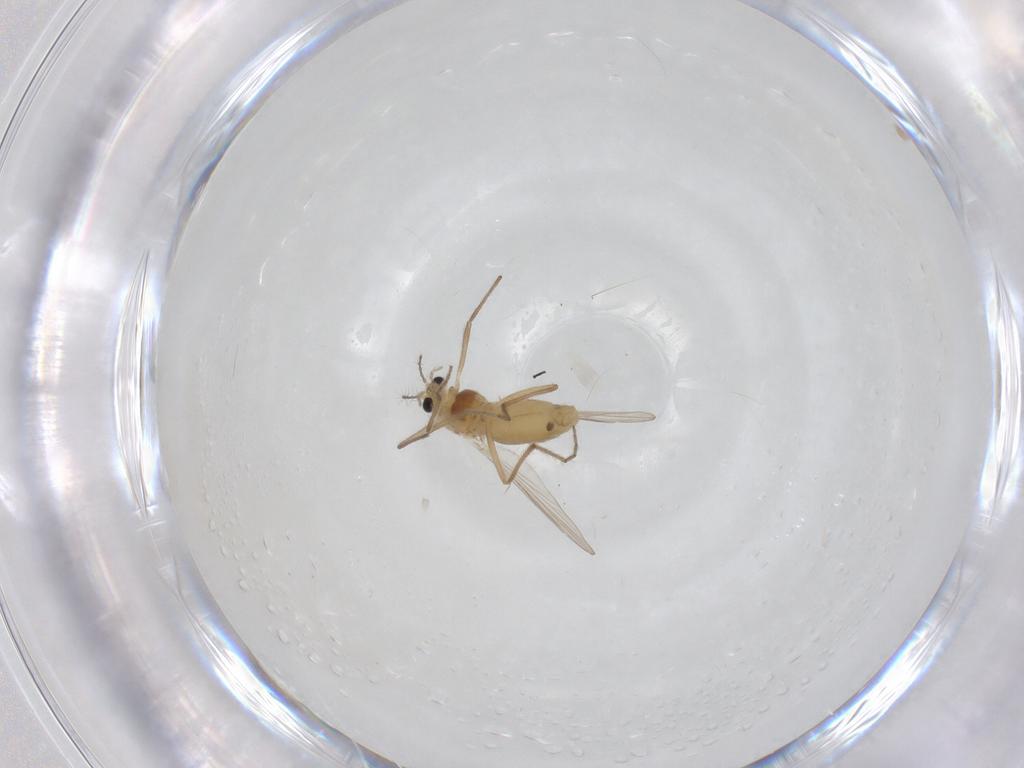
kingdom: Animalia
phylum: Arthropoda
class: Insecta
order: Diptera
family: Chironomidae
